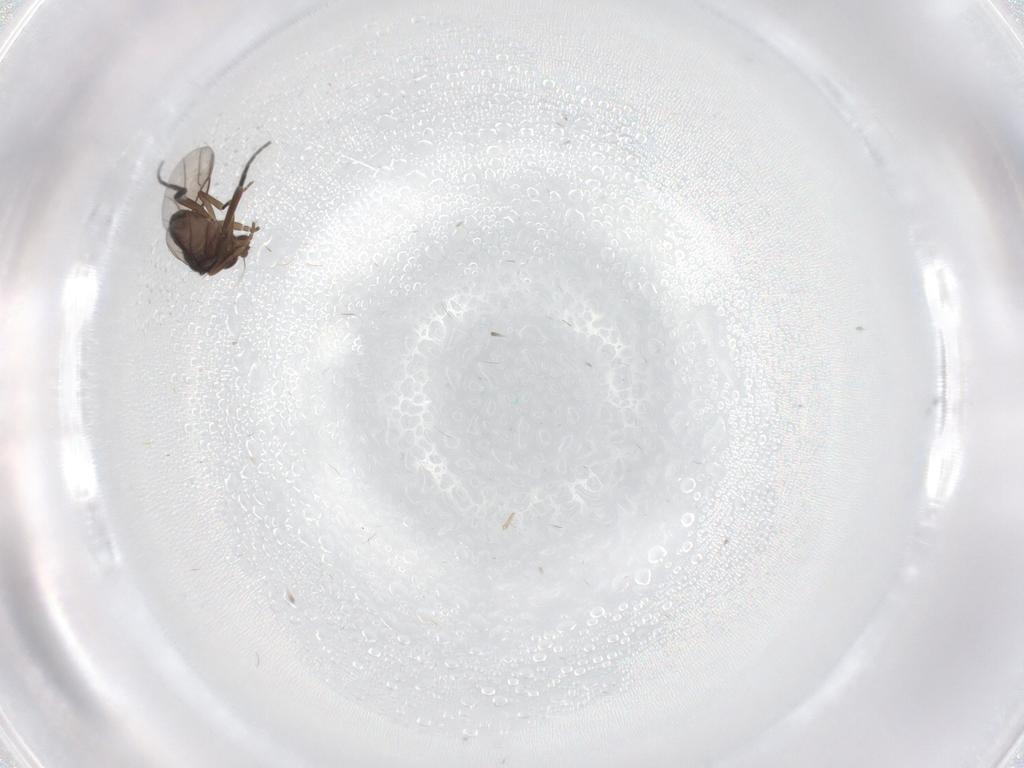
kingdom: Animalia
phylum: Arthropoda
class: Insecta
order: Diptera
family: Phoridae
